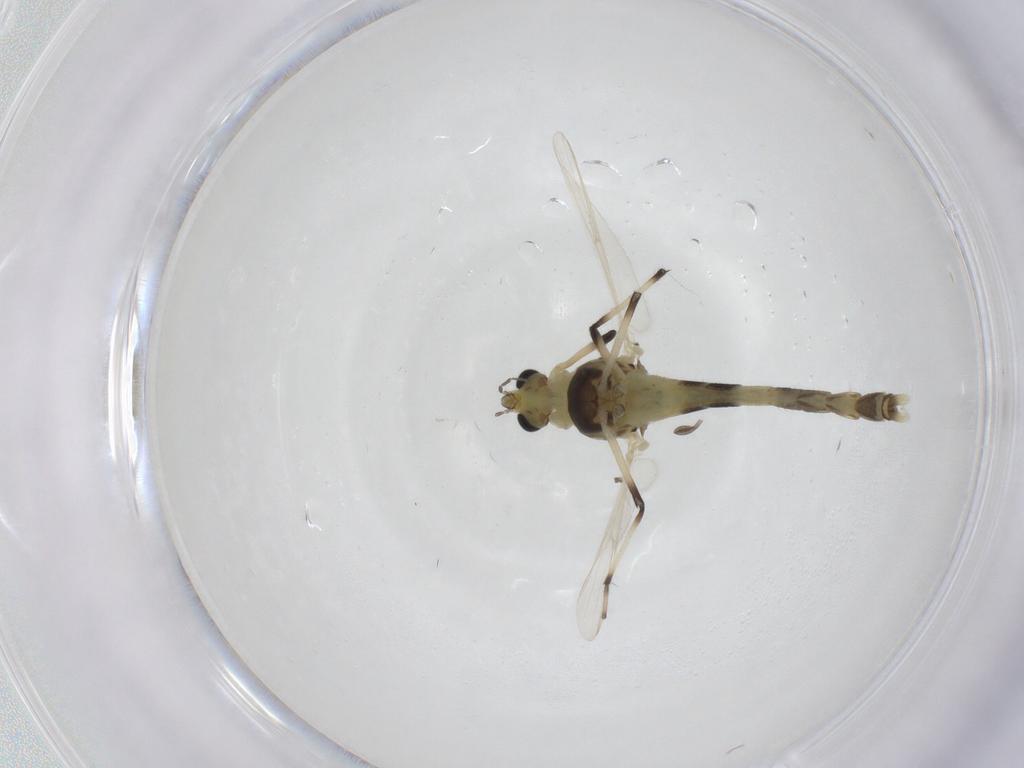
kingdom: Animalia
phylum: Arthropoda
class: Insecta
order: Diptera
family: Chironomidae
